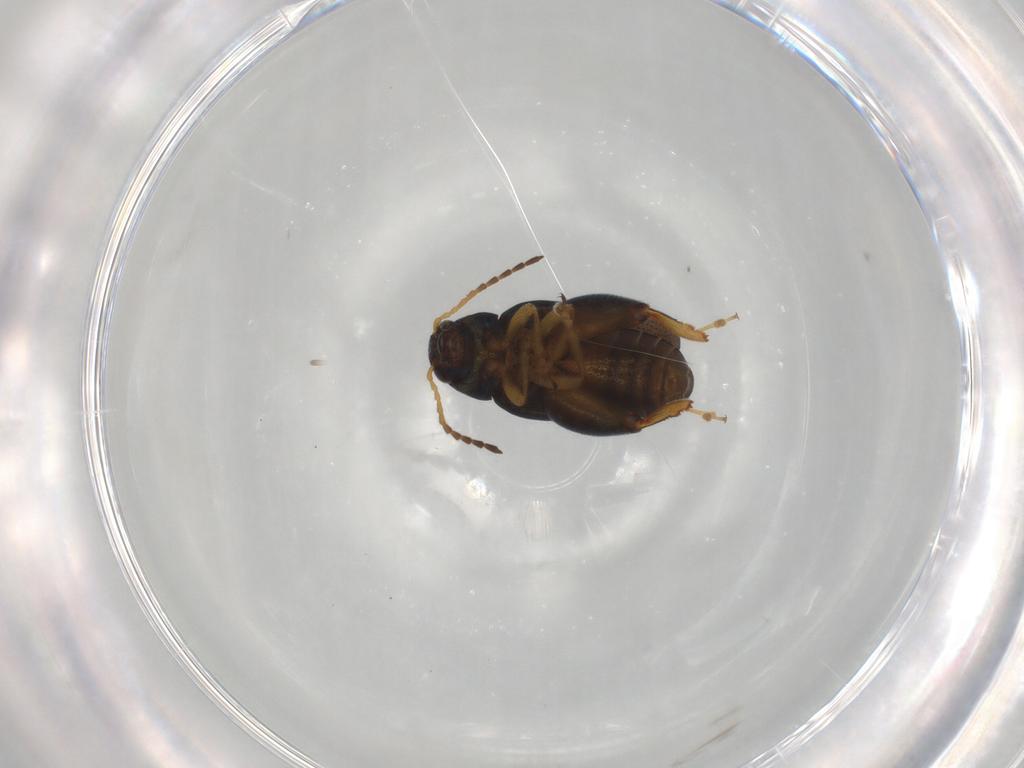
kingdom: Animalia
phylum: Arthropoda
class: Insecta
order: Coleoptera
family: Chrysomelidae
